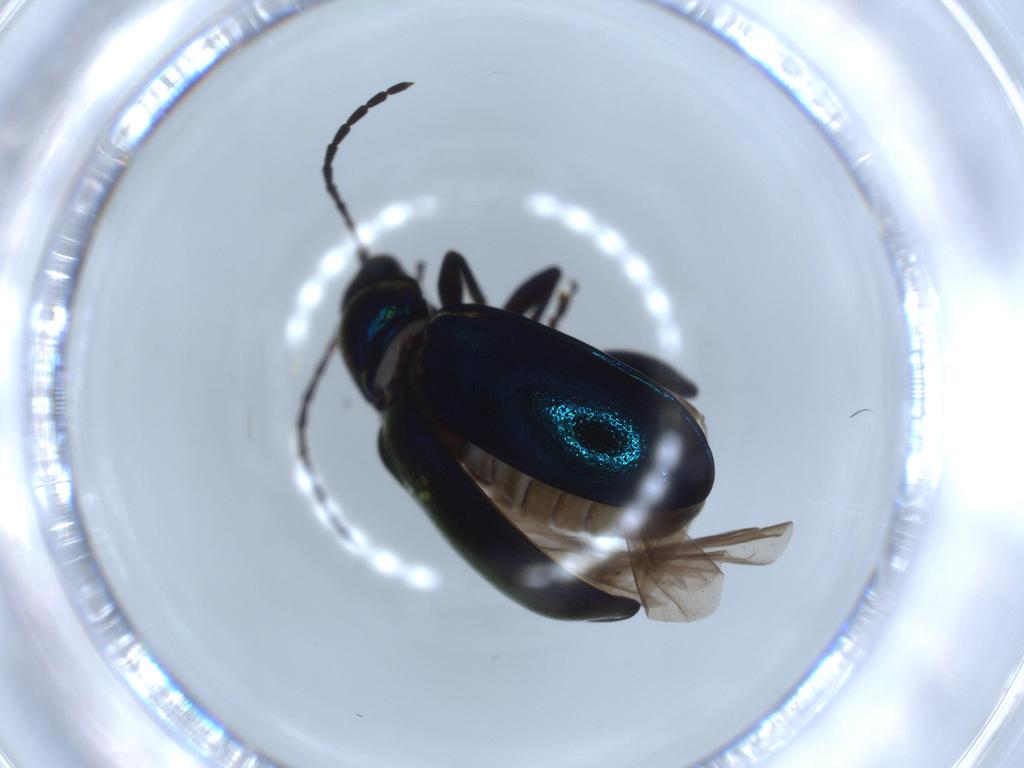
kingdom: Animalia
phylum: Arthropoda
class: Insecta
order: Coleoptera
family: Chrysomelidae
